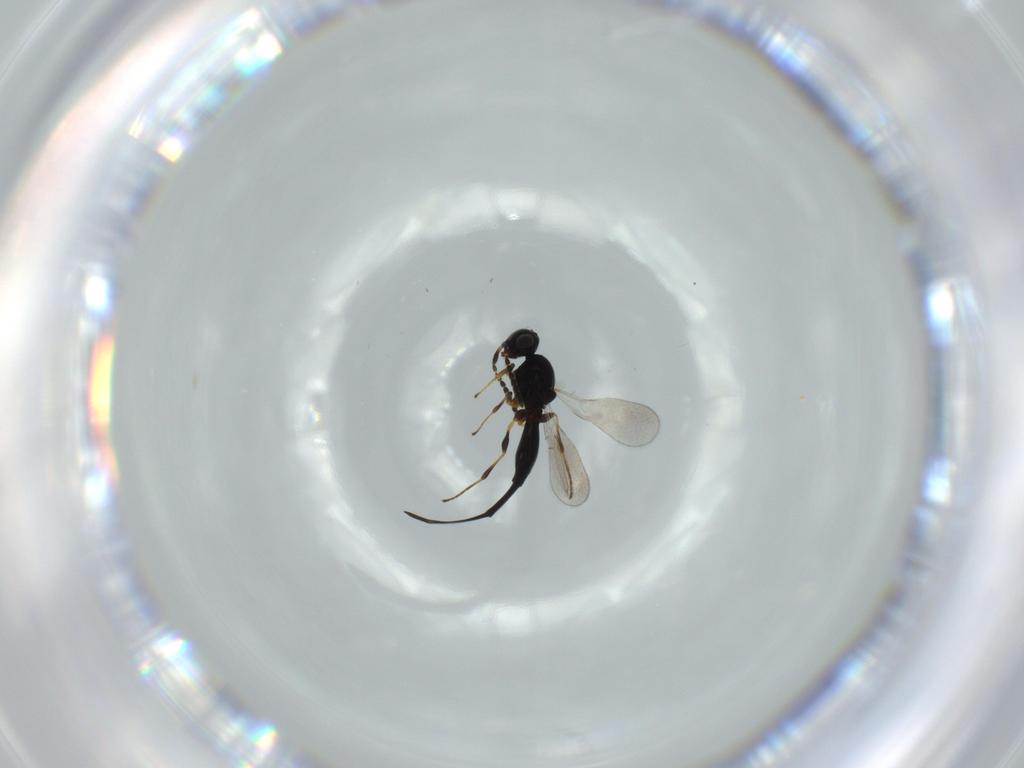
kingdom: Animalia
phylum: Arthropoda
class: Insecta
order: Hymenoptera
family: Platygastridae
